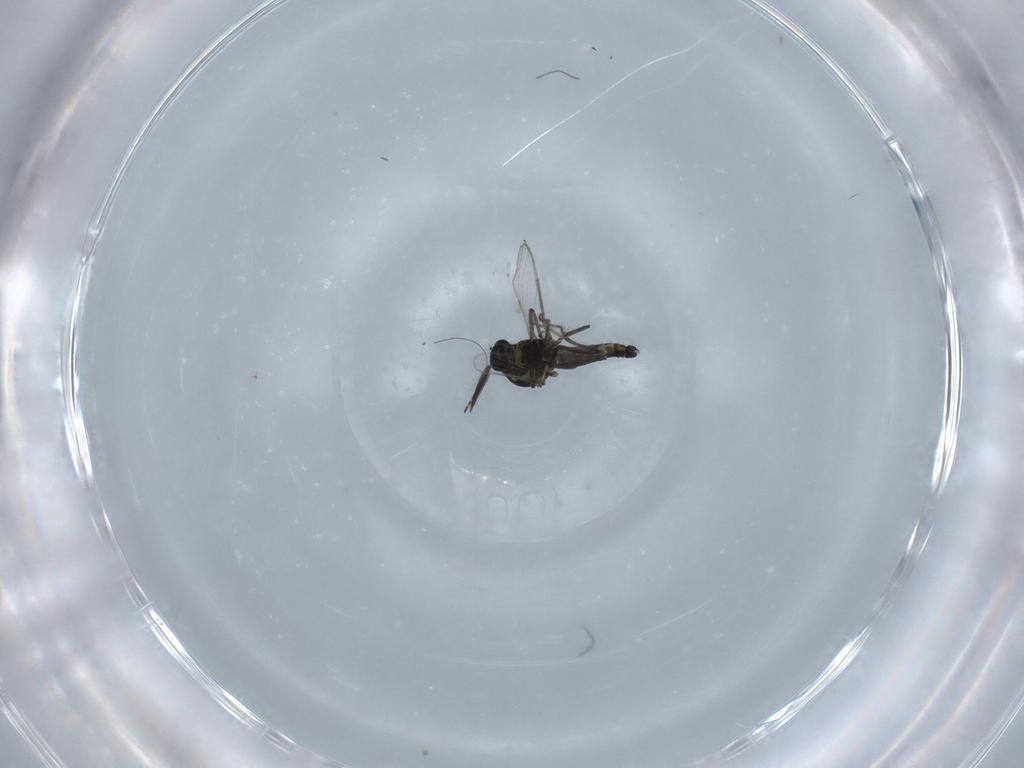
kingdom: Animalia
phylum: Arthropoda
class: Insecta
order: Diptera
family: Ceratopogonidae
